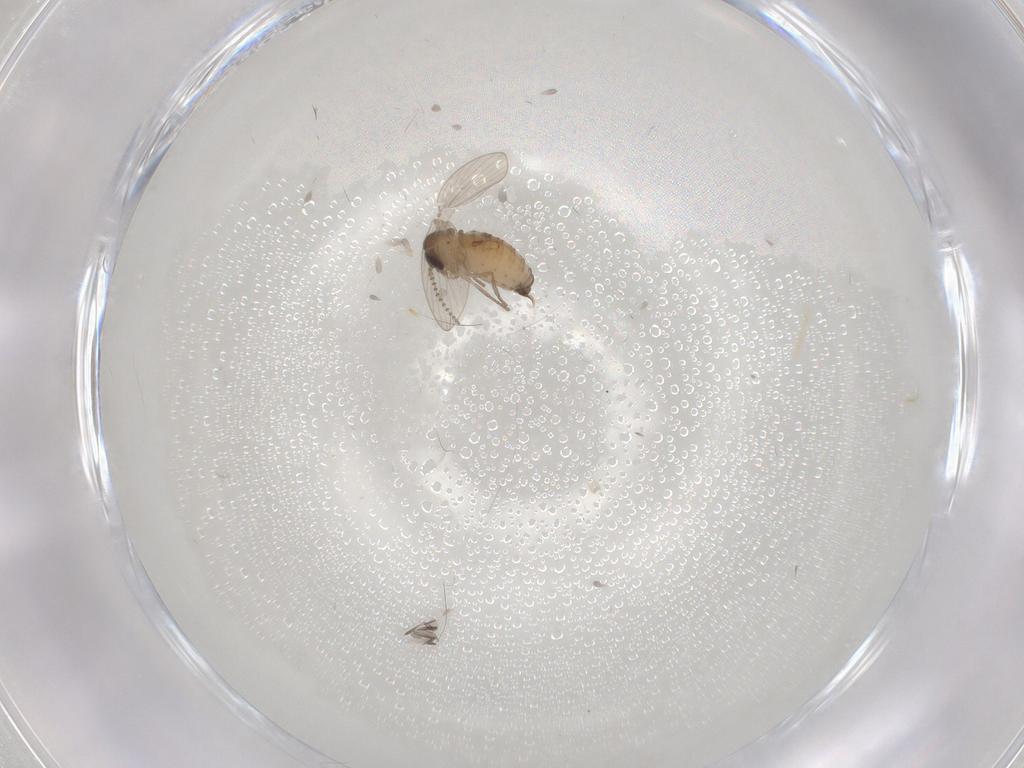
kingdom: Animalia
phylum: Arthropoda
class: Insecta
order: Diptera
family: Psychodidae
